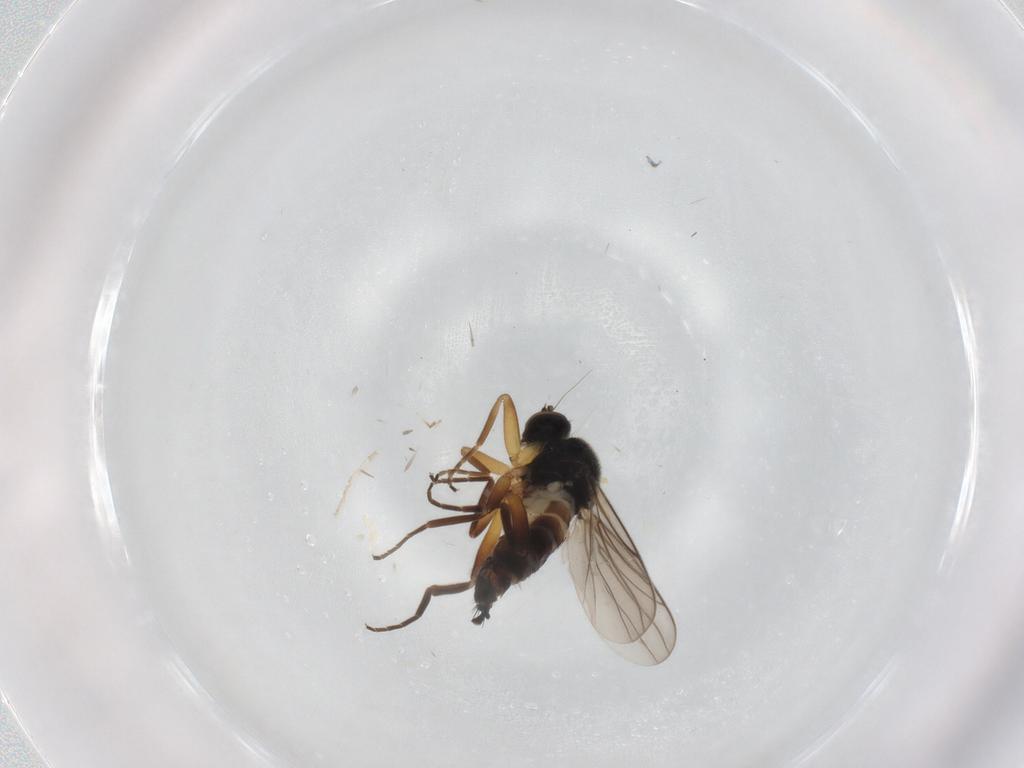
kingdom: Animalia
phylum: Arthropoda
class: Insecta
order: Diptera
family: Hybotidae
